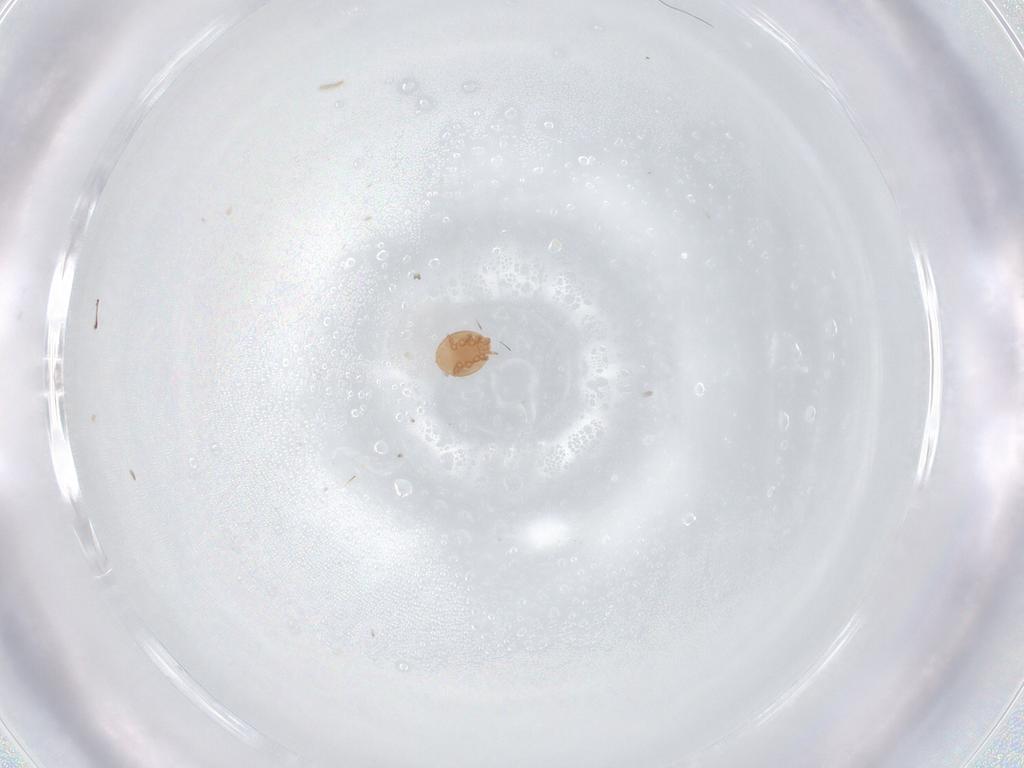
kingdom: Animalia
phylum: Arthropoda
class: Arachnida
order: Mesostigmata
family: Trematuridae
